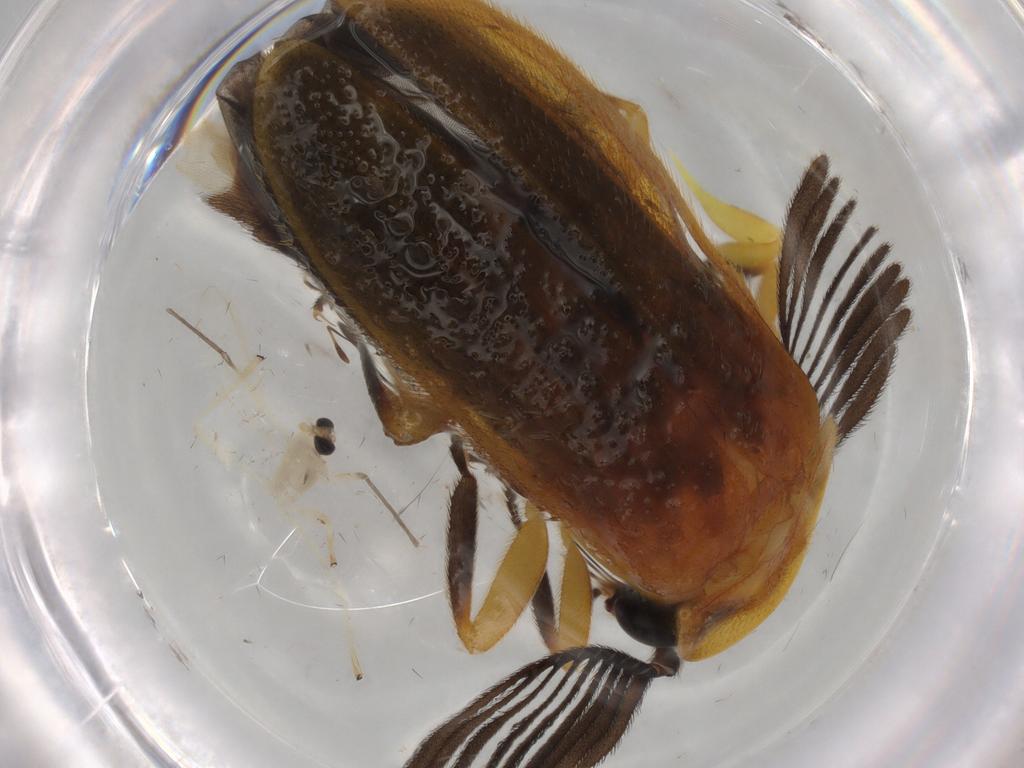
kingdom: Animalia
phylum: Arthropoda
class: Insecta
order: Coleoptera
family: Lampyridae
